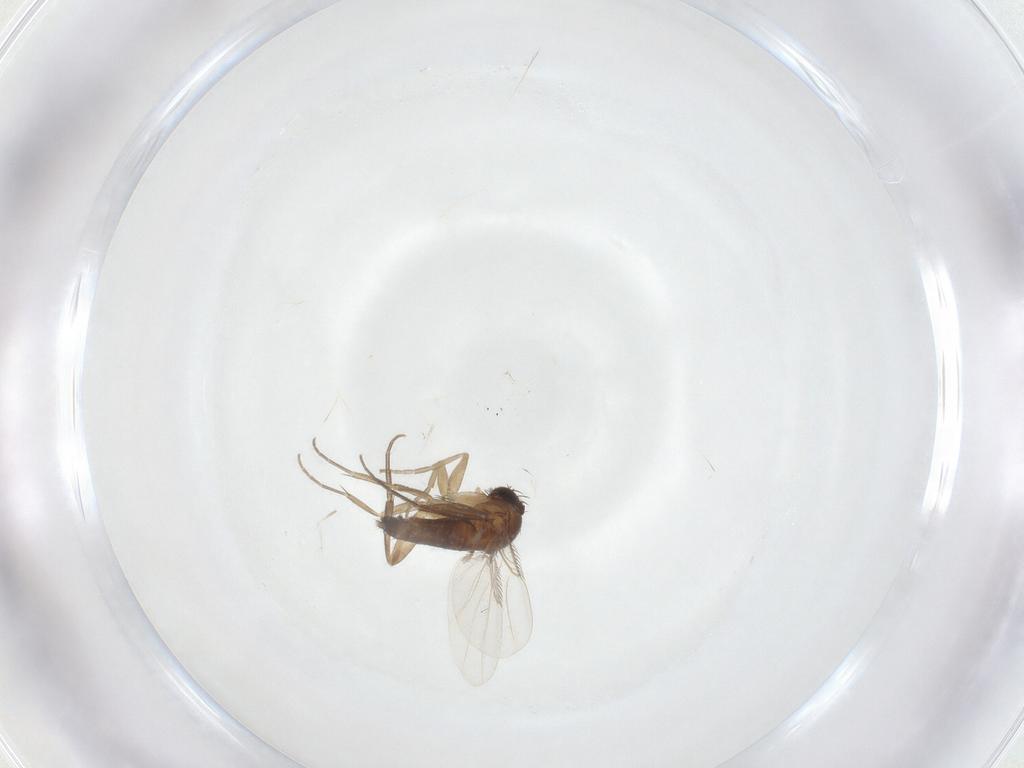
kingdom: Animalia
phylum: Arthropoda
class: Insecta
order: Diptera
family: Phoridae
